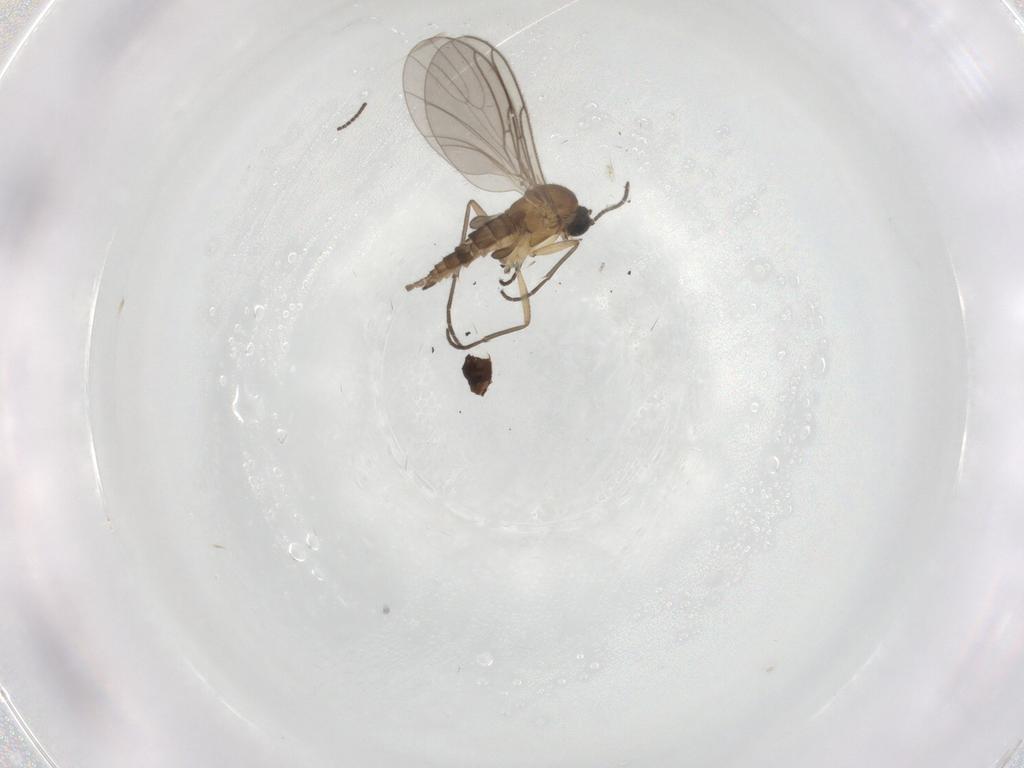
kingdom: Animalia
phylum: Arthropoda
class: Insecta
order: Diptera
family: Sciaridae
